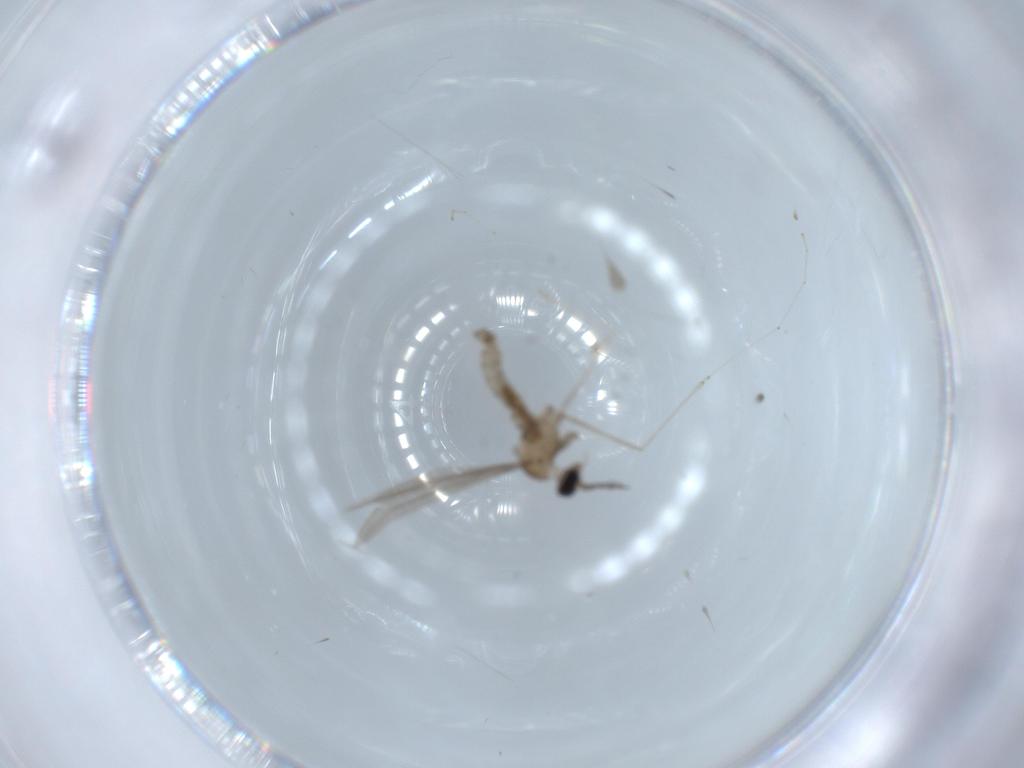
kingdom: Animalia
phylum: Arthropoda
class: Insecta
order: Diptera
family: Cecidomyiidae
